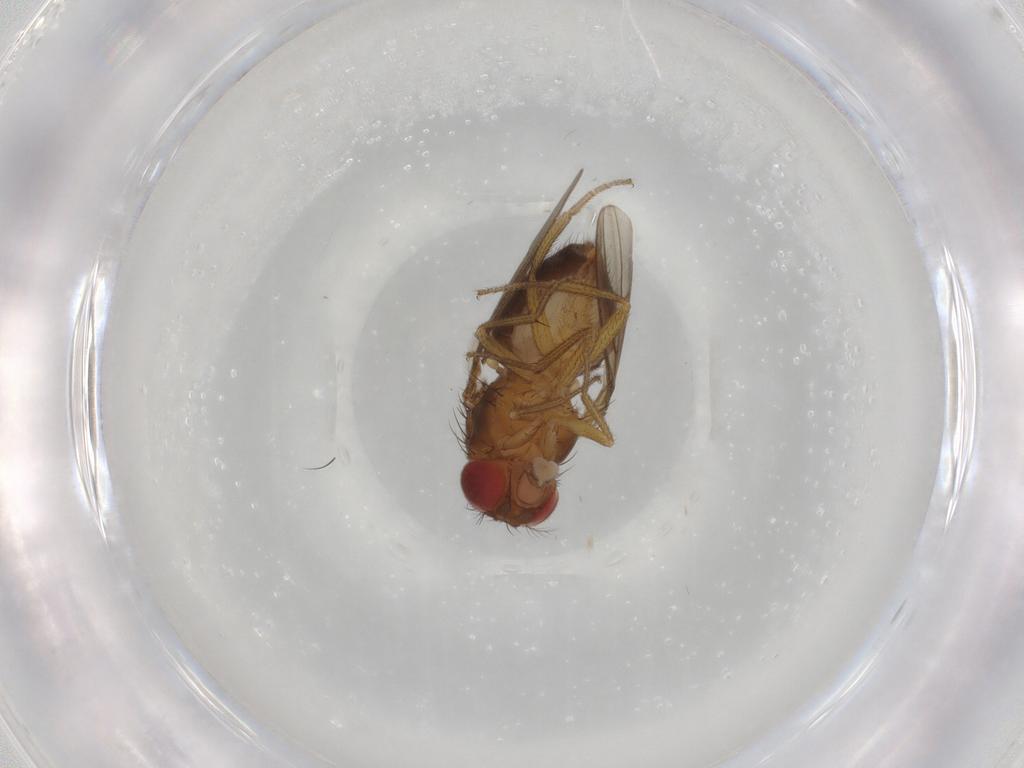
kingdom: Animalia
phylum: Arthropoda
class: Insecta
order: Diptera
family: Drosophilidae
